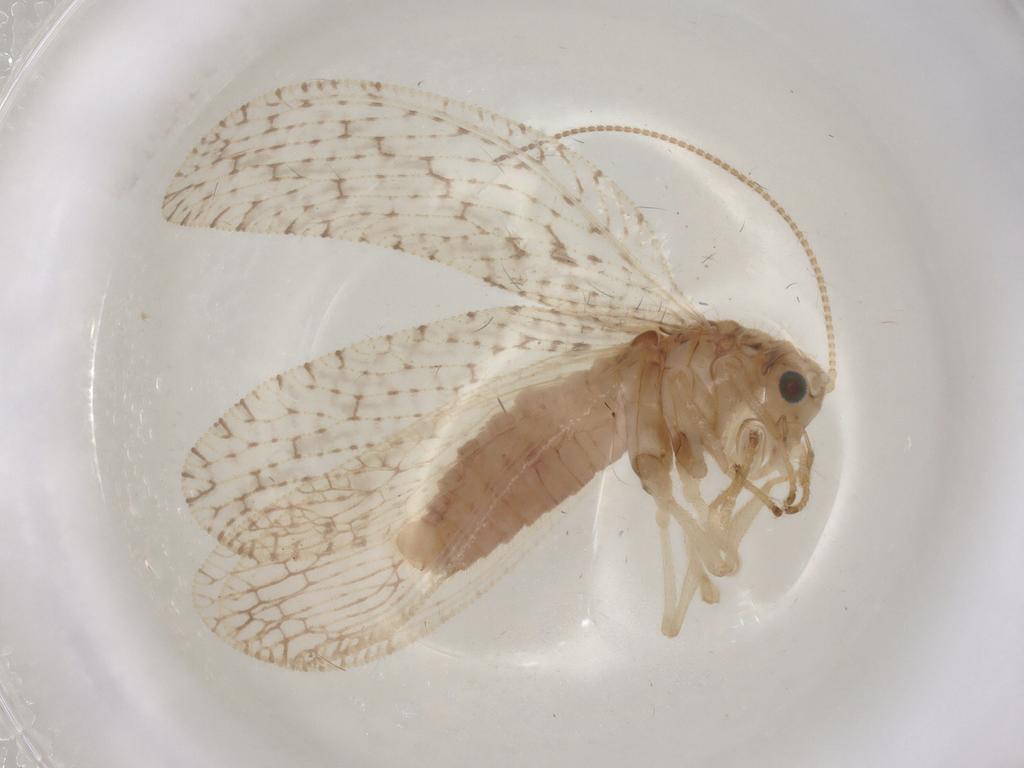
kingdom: Animalia
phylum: Arthropoda
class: Insecta
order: Neuroptera
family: Hemerobiidae
